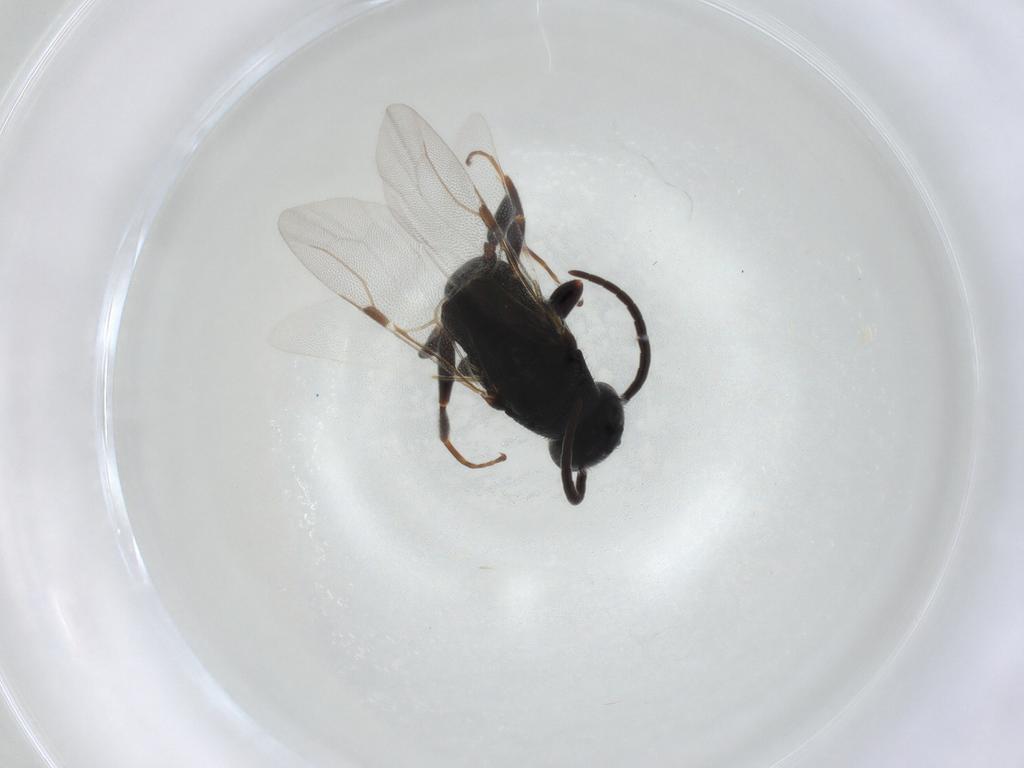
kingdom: Animalia
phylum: Arthropoda
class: Insecta
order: Hymenoptera
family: Bethylidae
